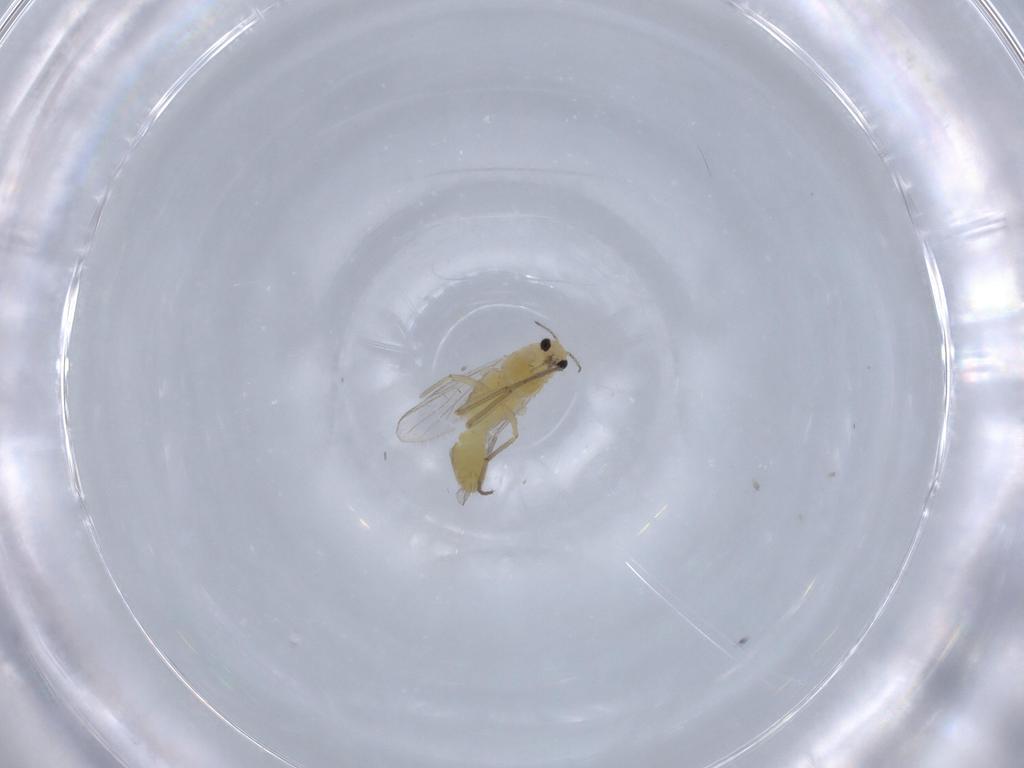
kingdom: Animalia
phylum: Arthropoda
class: Insecta
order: Diptera
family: Chironomidae
